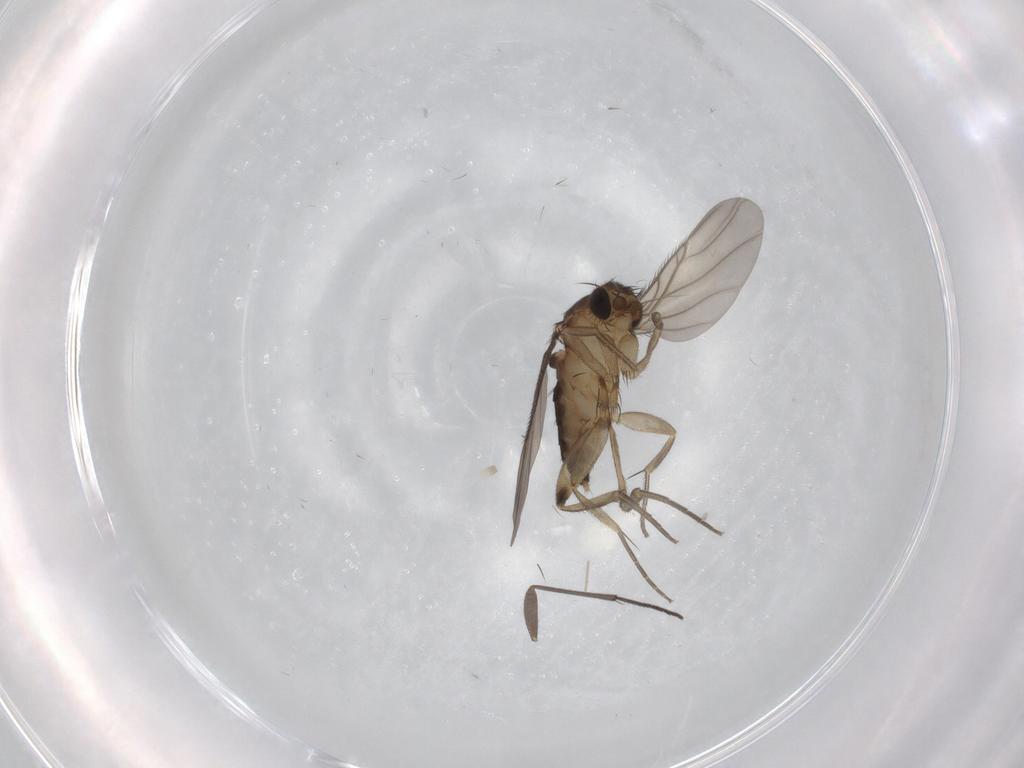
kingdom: Animalia
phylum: Arthropoda
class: Insecta
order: Diptera
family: Phoridae
